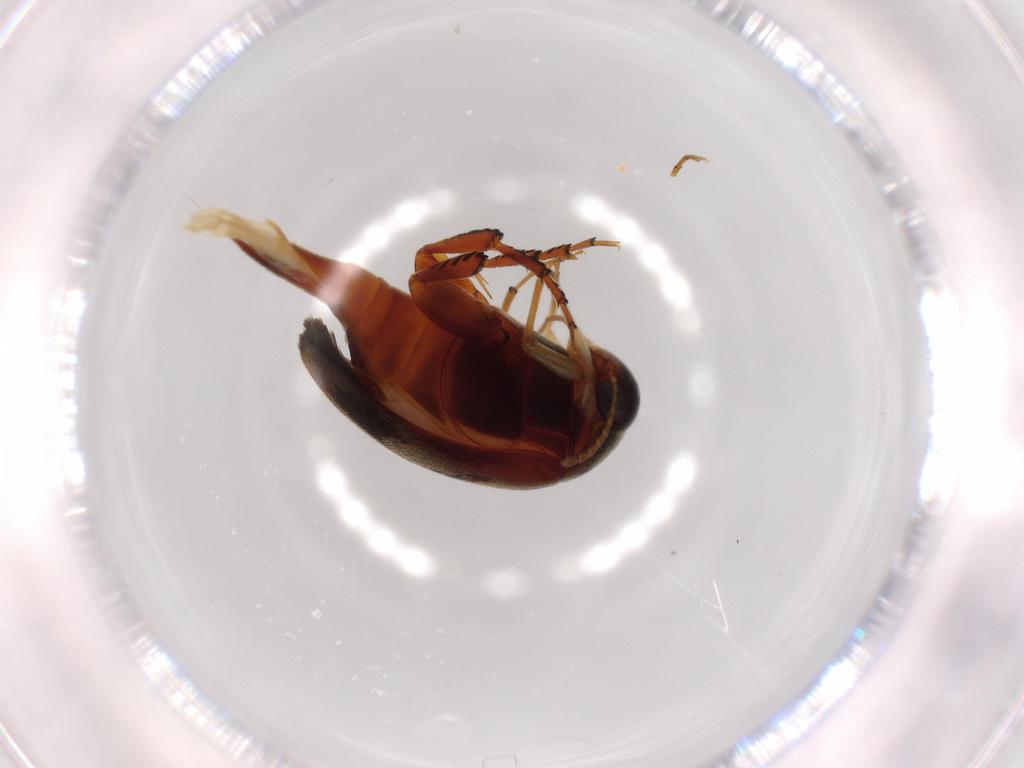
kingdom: Animalia
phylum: Arthropoda
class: Insecta
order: Coleoptera
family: Mordellidae
